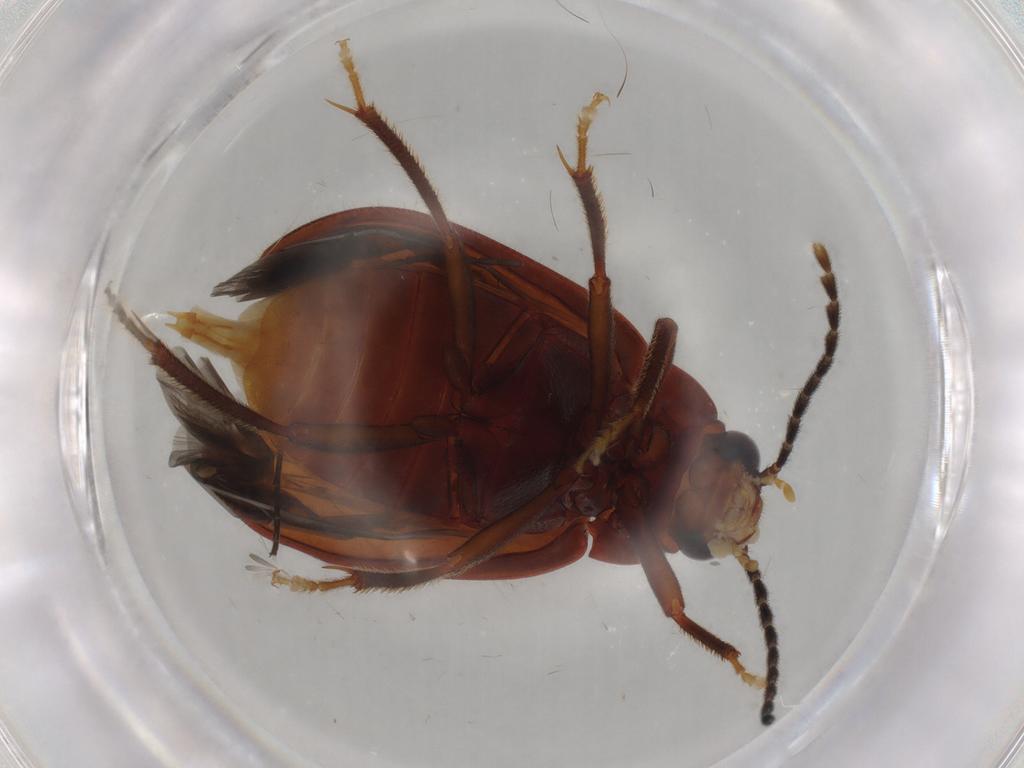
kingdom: Animalia
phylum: Arthropoda
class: Insecta
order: Coleoptera
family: Ptilodactylidae
